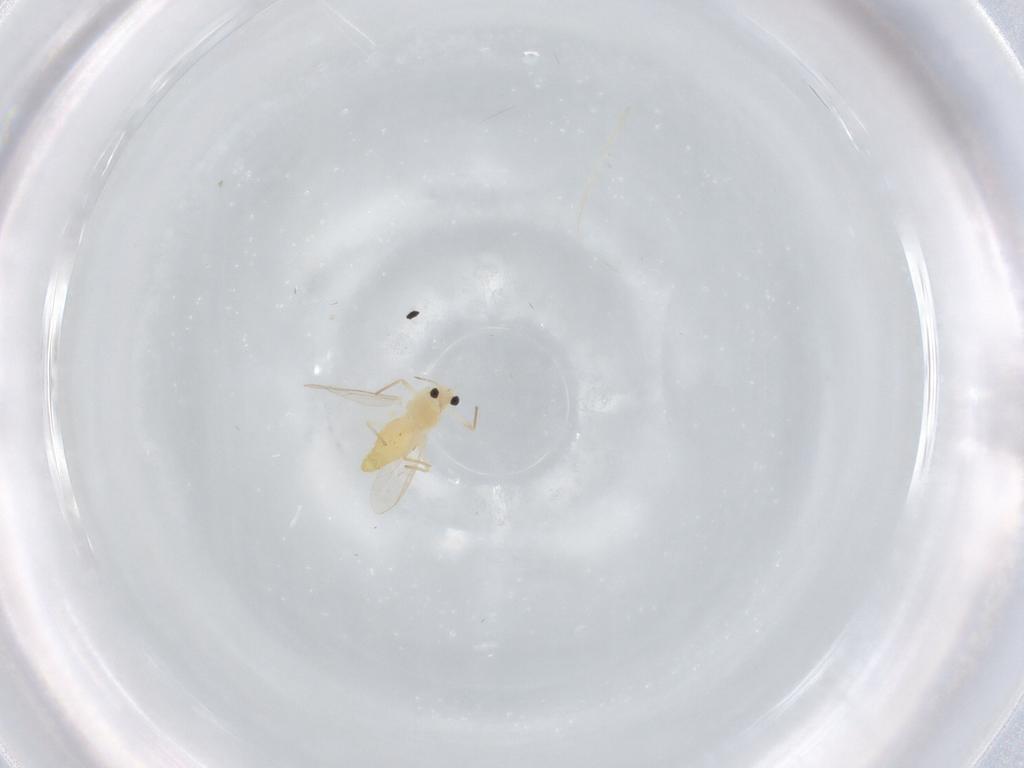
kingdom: Animalia
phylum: Arthropoda
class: Insecta
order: Diptera
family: Chironomidae
